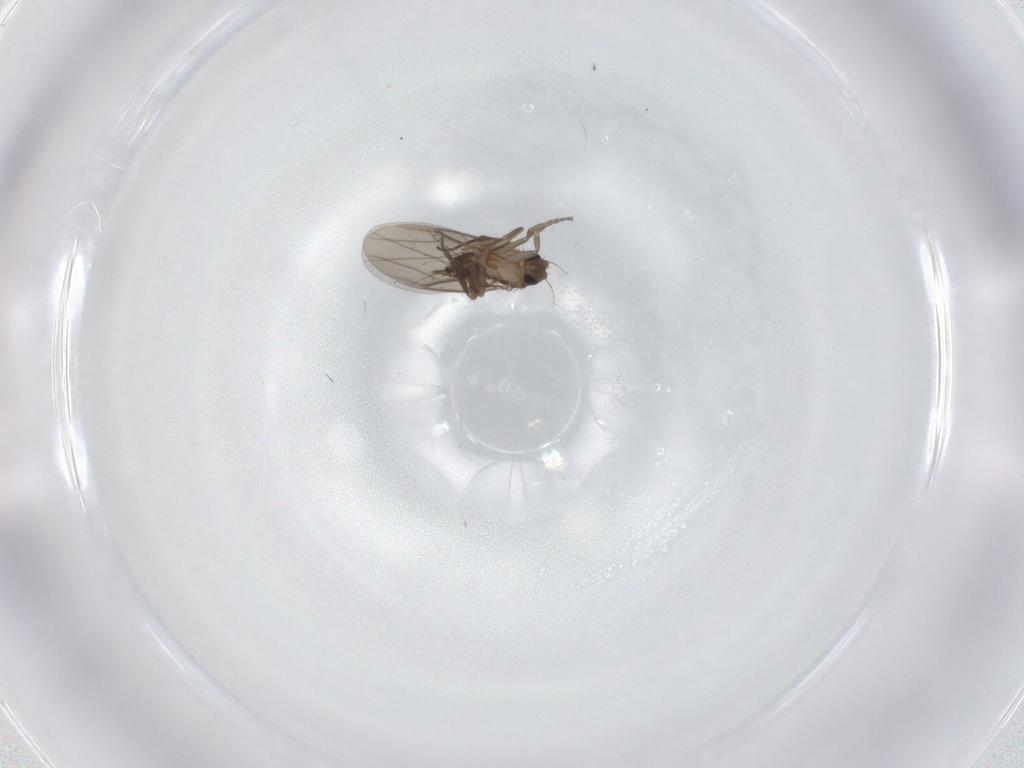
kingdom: Animalia
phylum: Arthropoda
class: Insecta
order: Diptera
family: Phoridae
